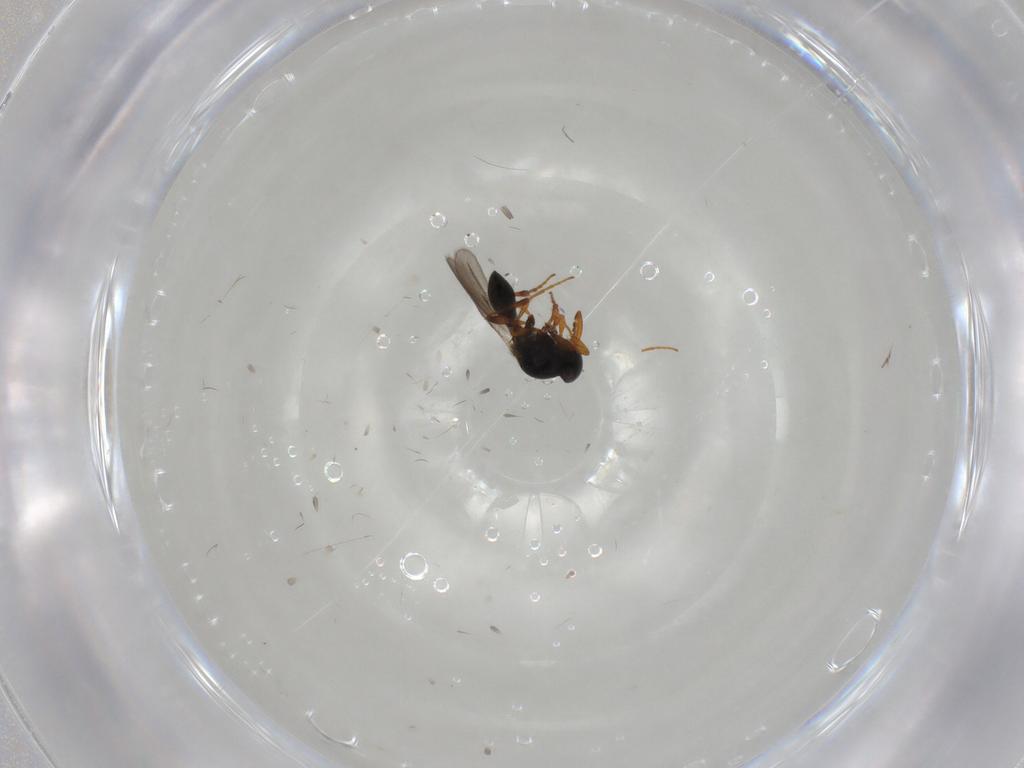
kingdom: Animalia
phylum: Arthropoda
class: Insecta
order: Hymenoptera
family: Platygastridae
